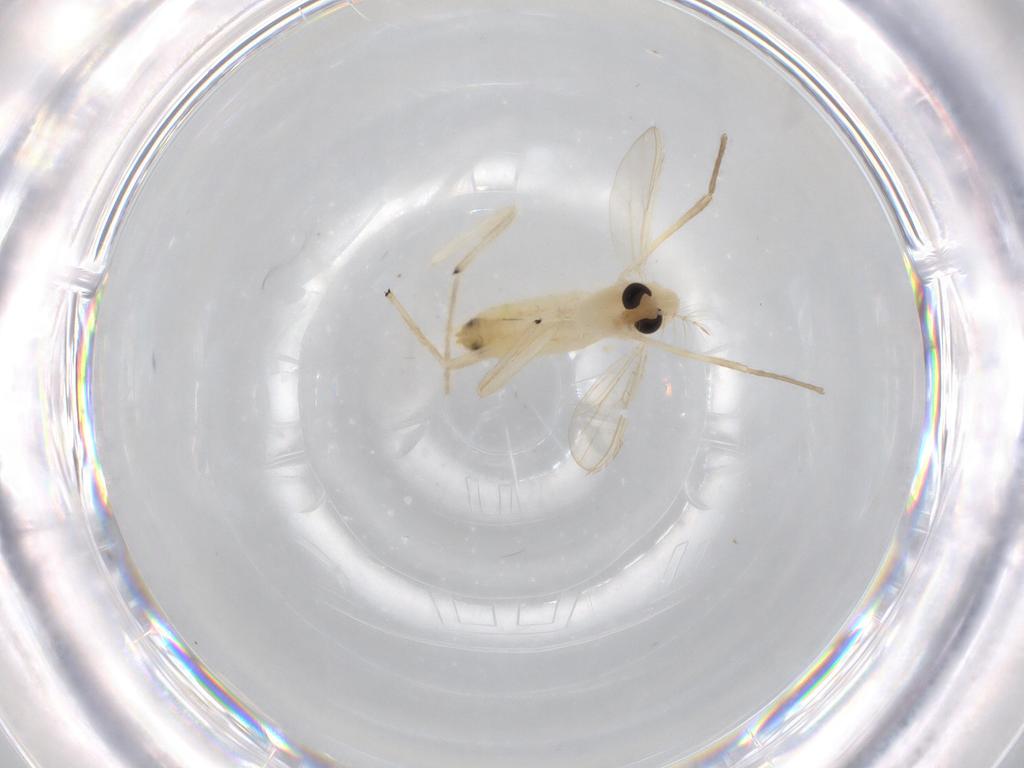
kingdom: Animalia
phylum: Arthropoda
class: Insecta
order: Diptera
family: Chironomidae
